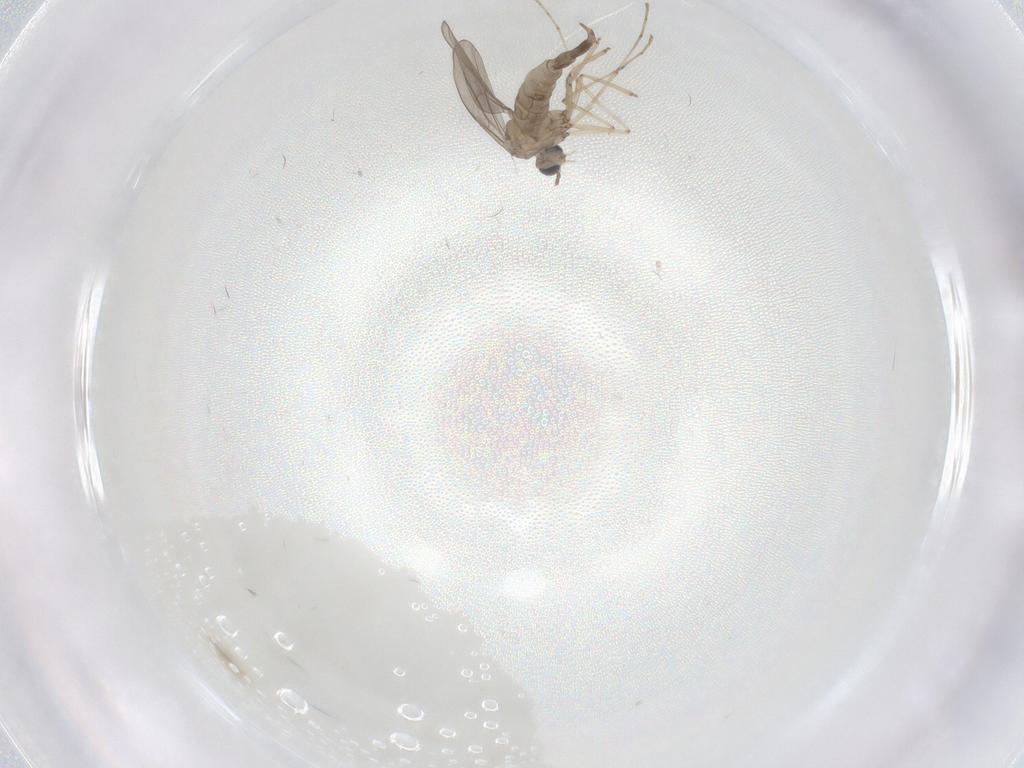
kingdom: Animalia
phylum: Arthropoda
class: Insecta
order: Diptera
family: Cecidomyiidae
